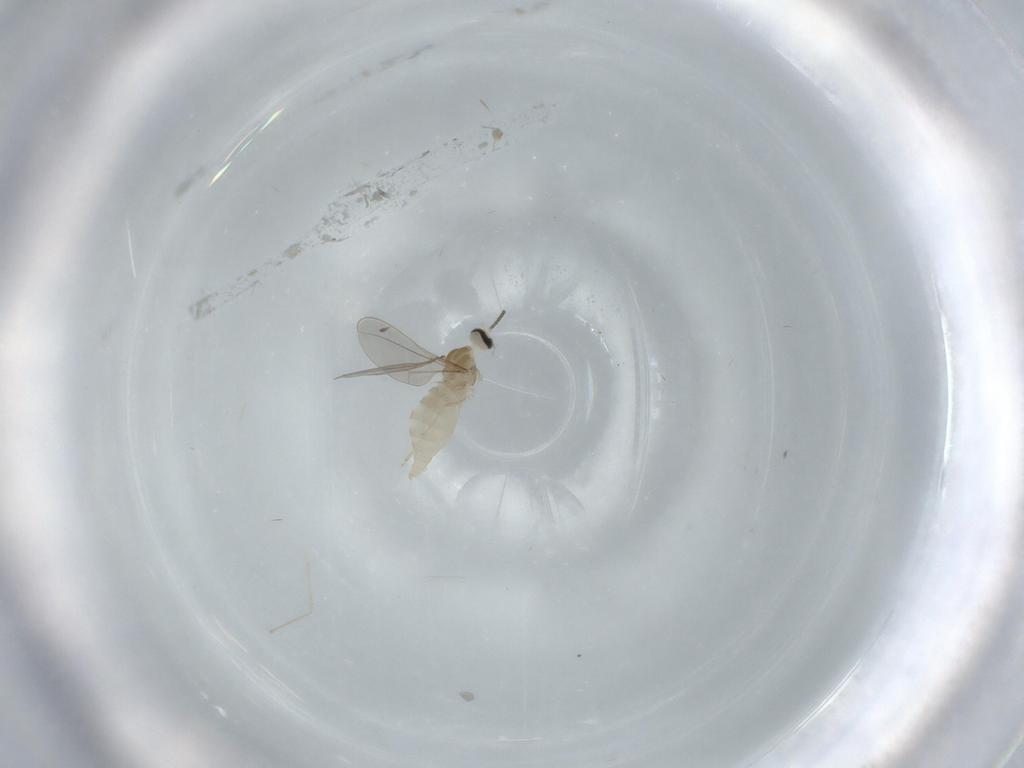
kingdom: Animalia
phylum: Arthropoda
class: Insecta
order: Diptera
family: Cecidomyiidae
